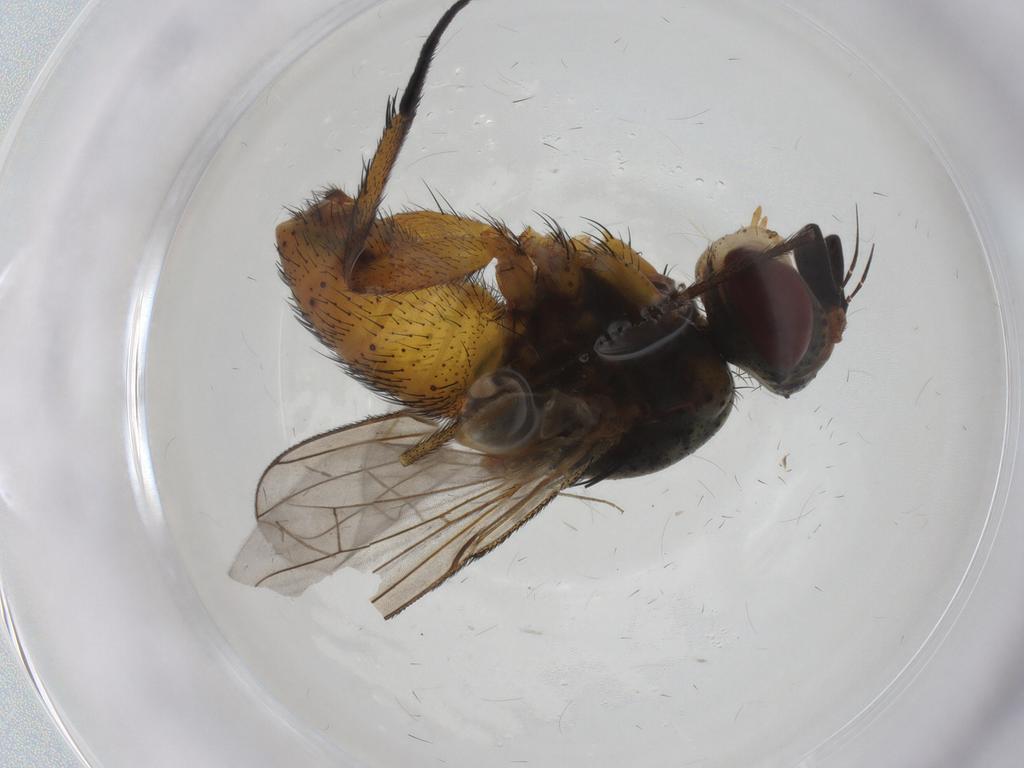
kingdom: Animalia
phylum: Arthropoda
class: Insecta
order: Diptera
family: Tachinidae
